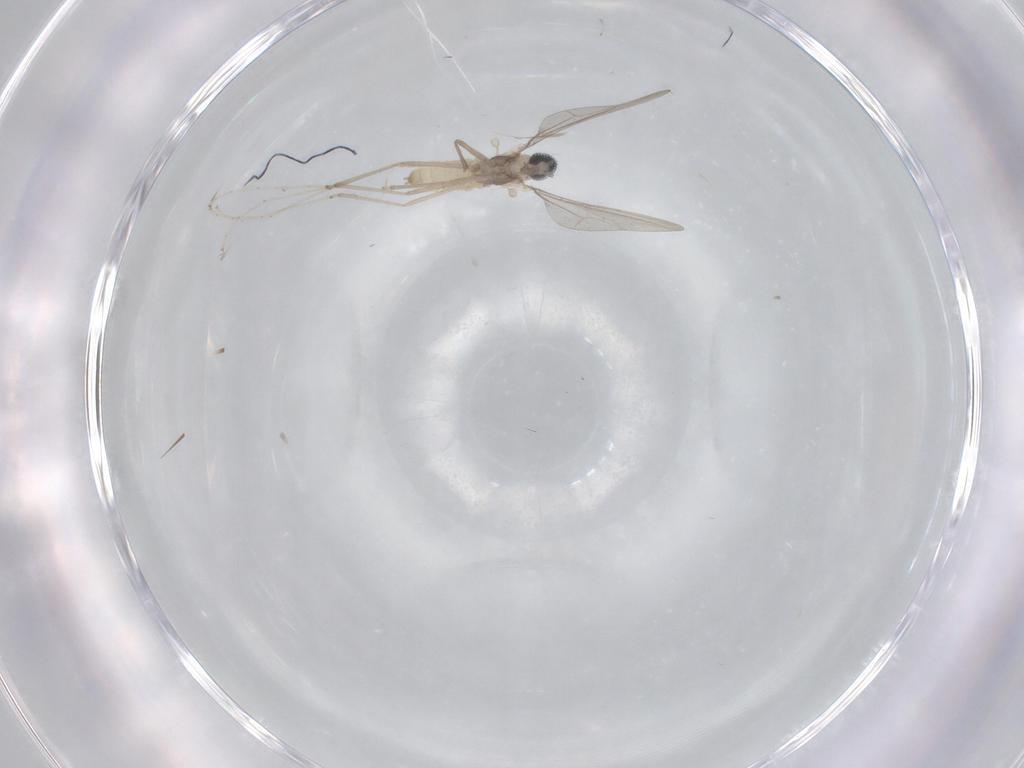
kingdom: Animalia
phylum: Arthropoda
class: Insecta
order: Diptera
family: Cecidomyiidae
